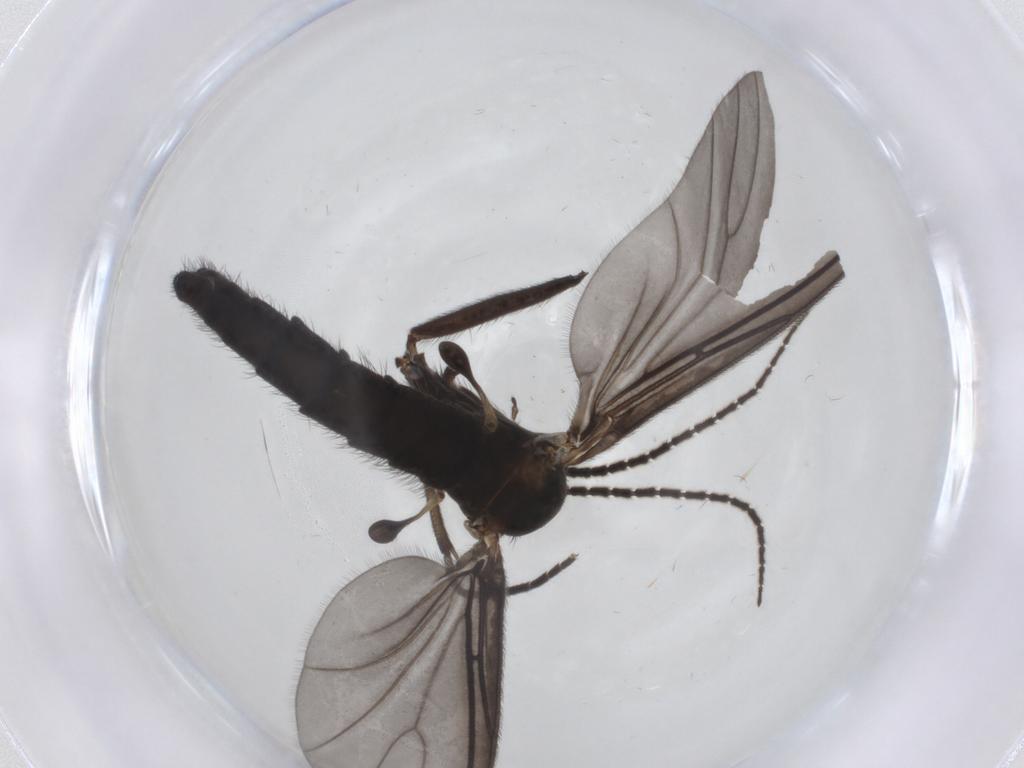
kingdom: Animalia
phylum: Arthropoda
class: Insecta
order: Diptera
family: Sciaridae
